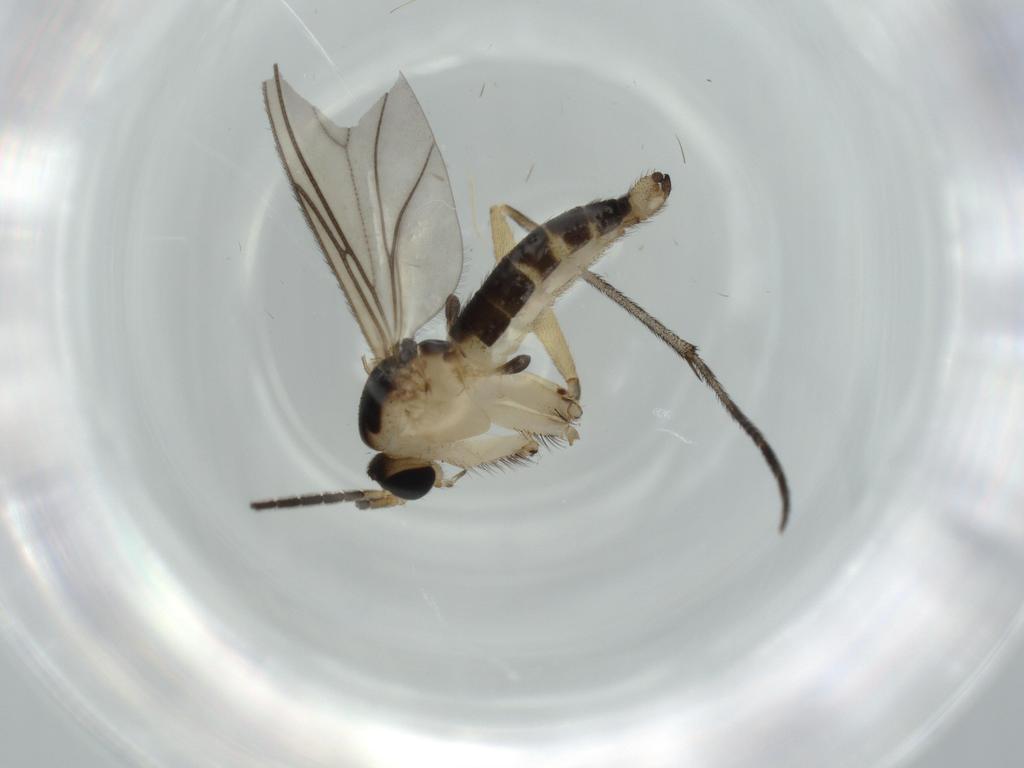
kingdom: Animalia
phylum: Arthropoda
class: Insecta
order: Diptera
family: Sciaridae
